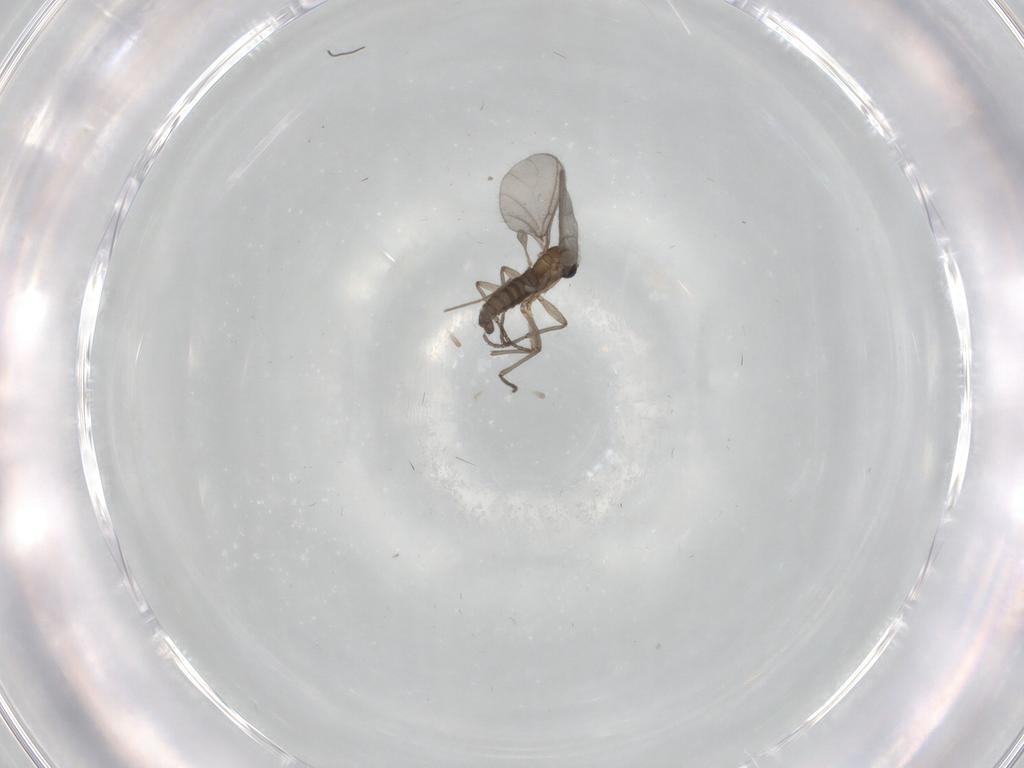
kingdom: Animalia
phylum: Arthropoda
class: Insecta
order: Diptera
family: Sciaridae
